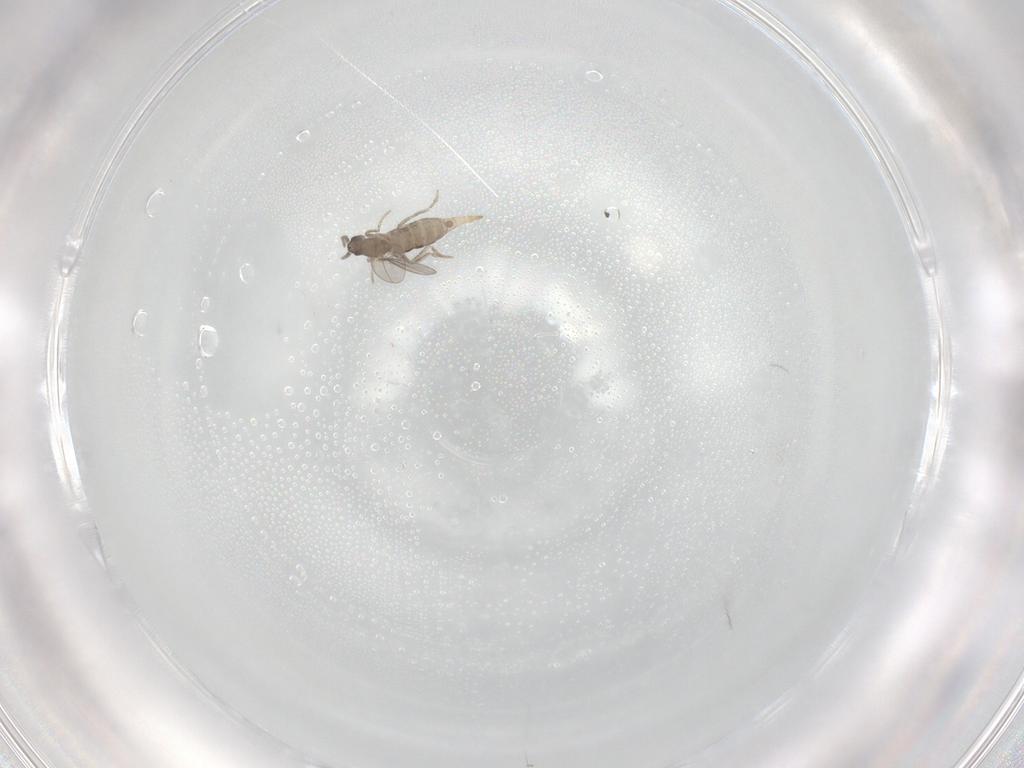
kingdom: Animalia
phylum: Arthropoda
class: Insecta
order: Diptera
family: Cecidomyiidae
